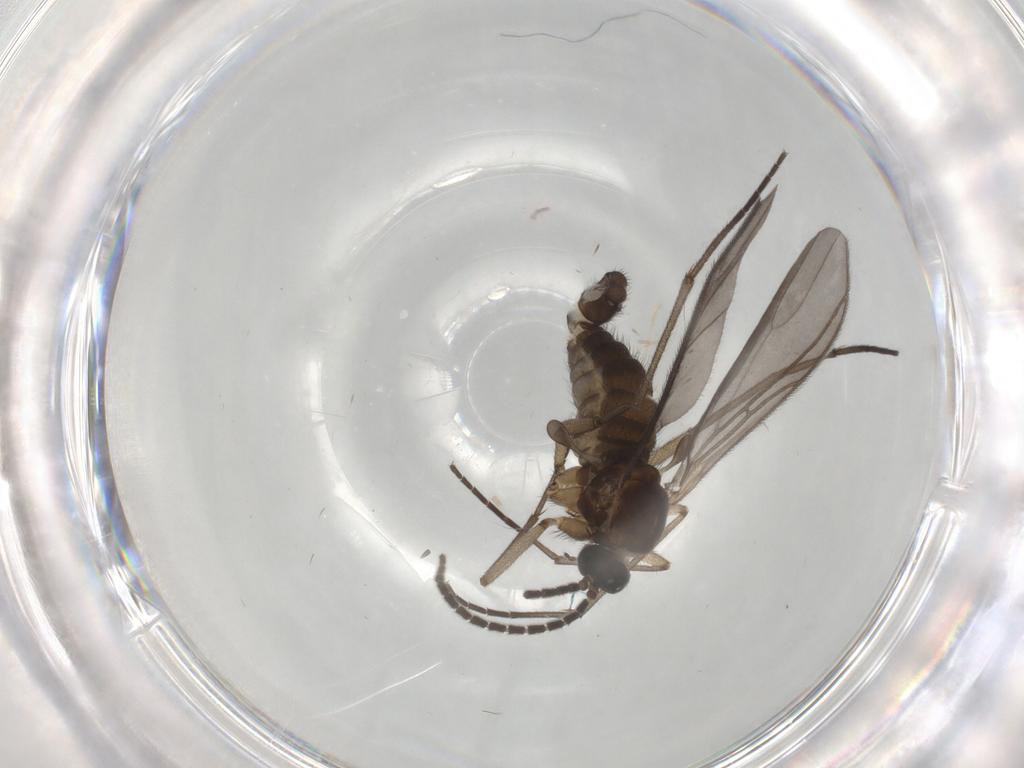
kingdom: Animalia
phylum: Arthropoda
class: Insecta
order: Diptera
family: Sciaridae
